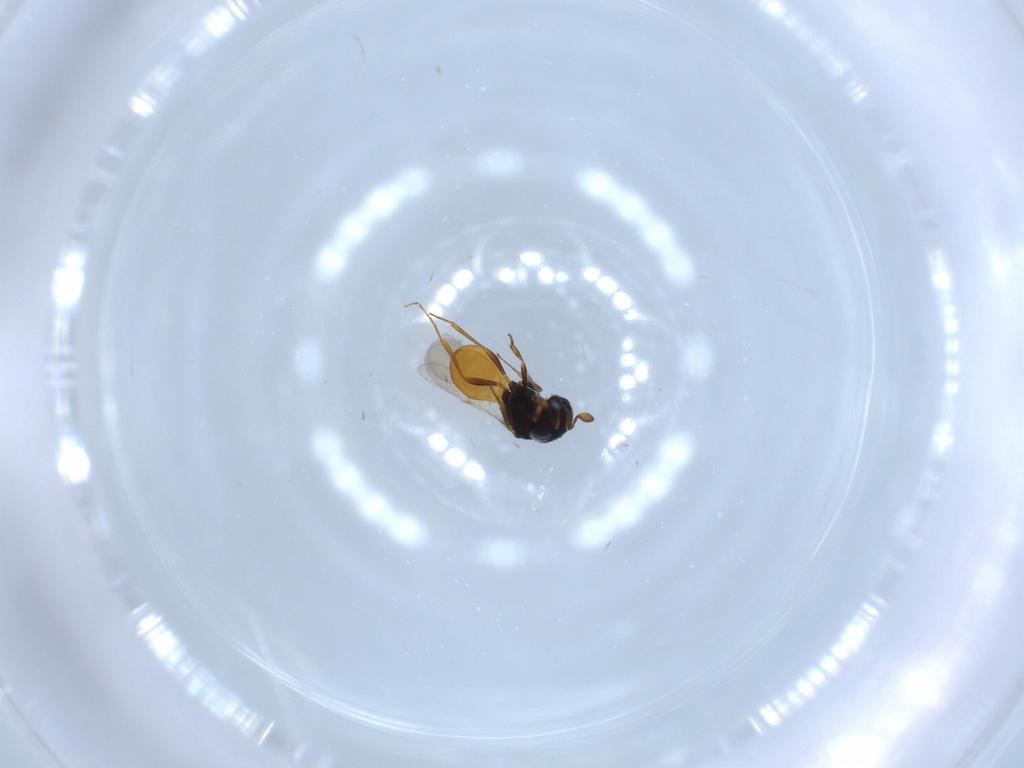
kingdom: Animalia
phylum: Arthropoda
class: Insecta
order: Hymenoptera
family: Scelionidae
